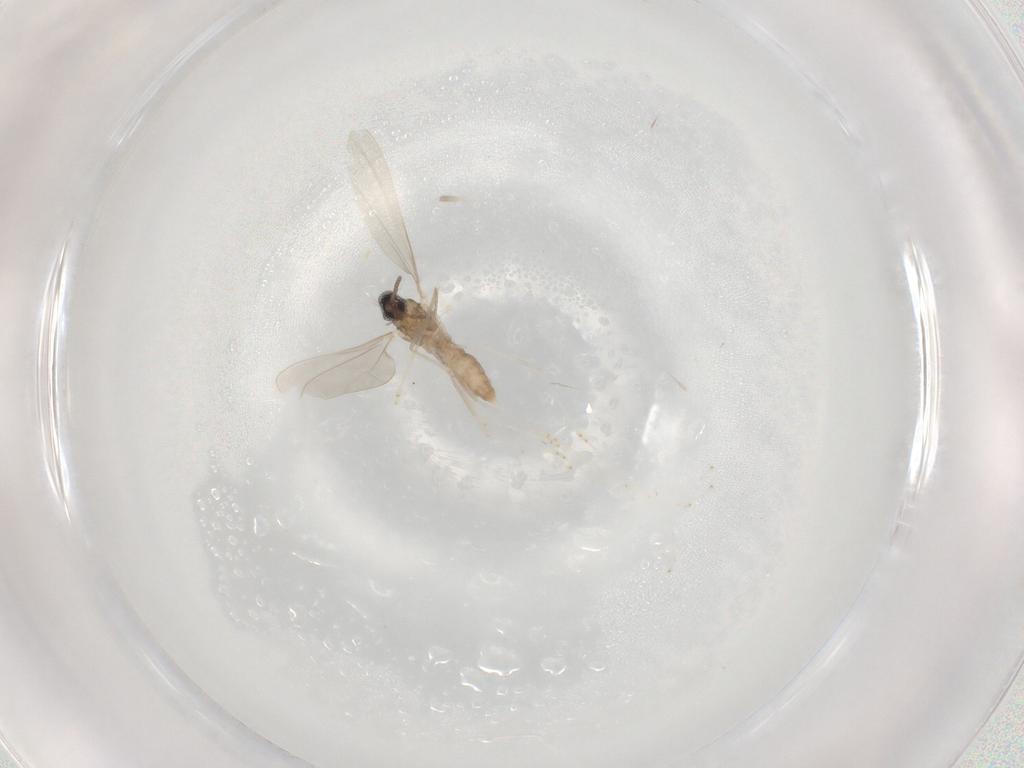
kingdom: Animalia
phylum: Arthropoda
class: Insecta
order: Diptera
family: Cecidomyiidae
